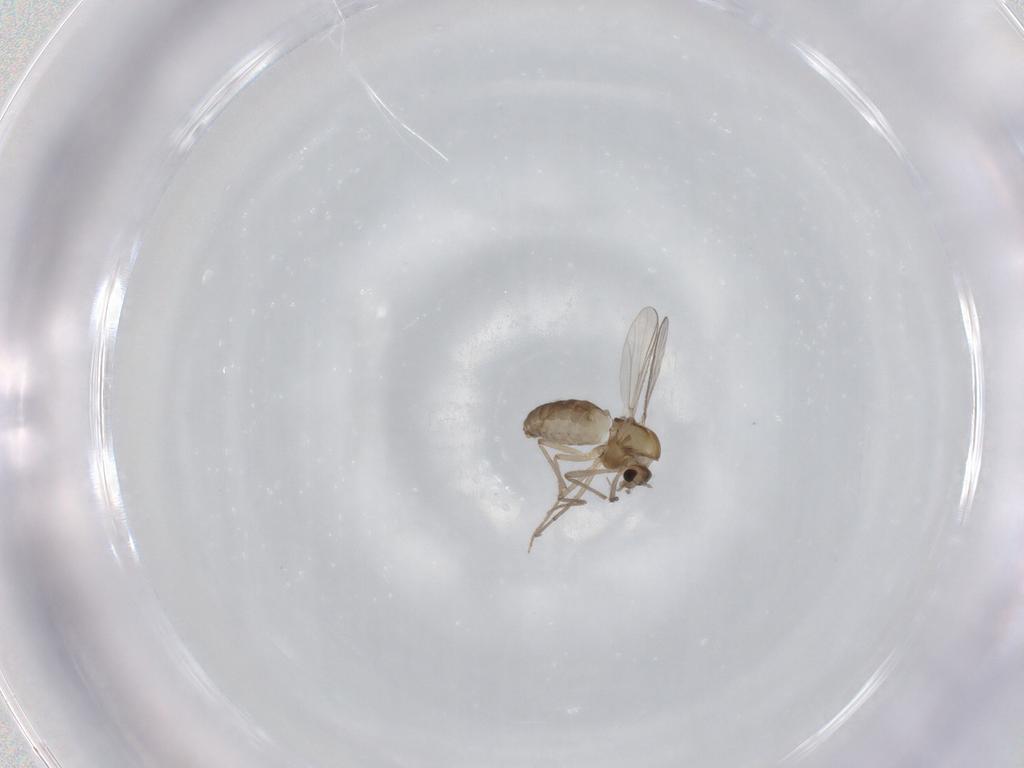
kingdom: Animalia
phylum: Arthropoda
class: Insecta
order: Diptera
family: Chironomidae
